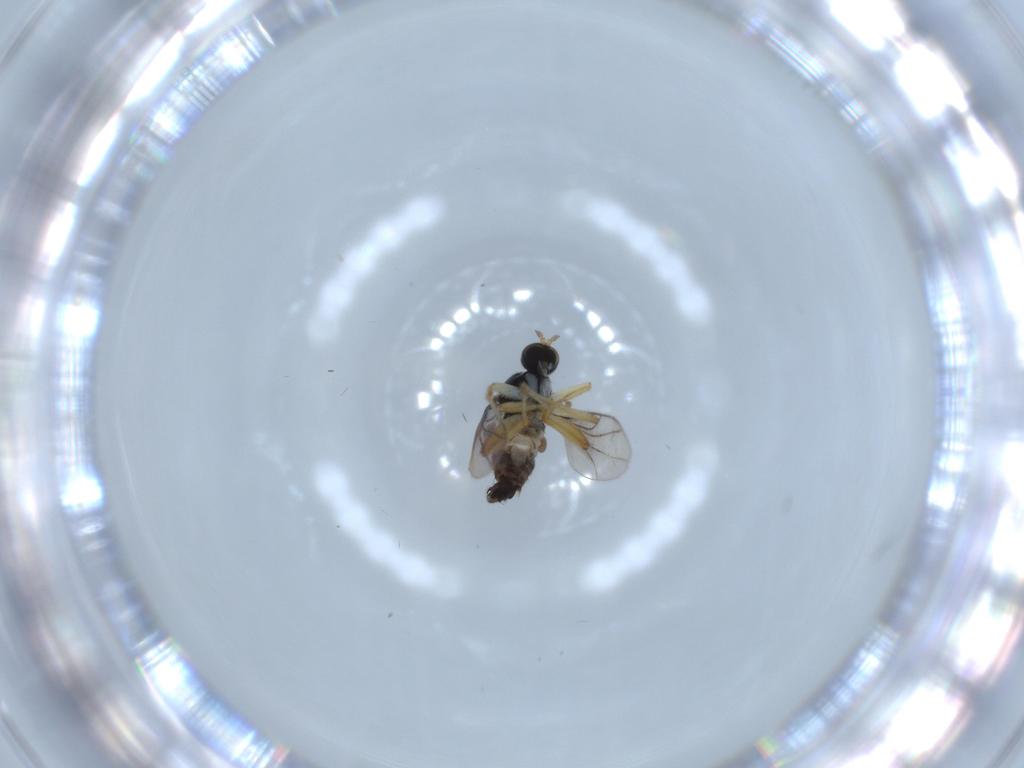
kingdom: Animalia
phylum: Arthropoda
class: Insecta
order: Diptera
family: Hybotidae
